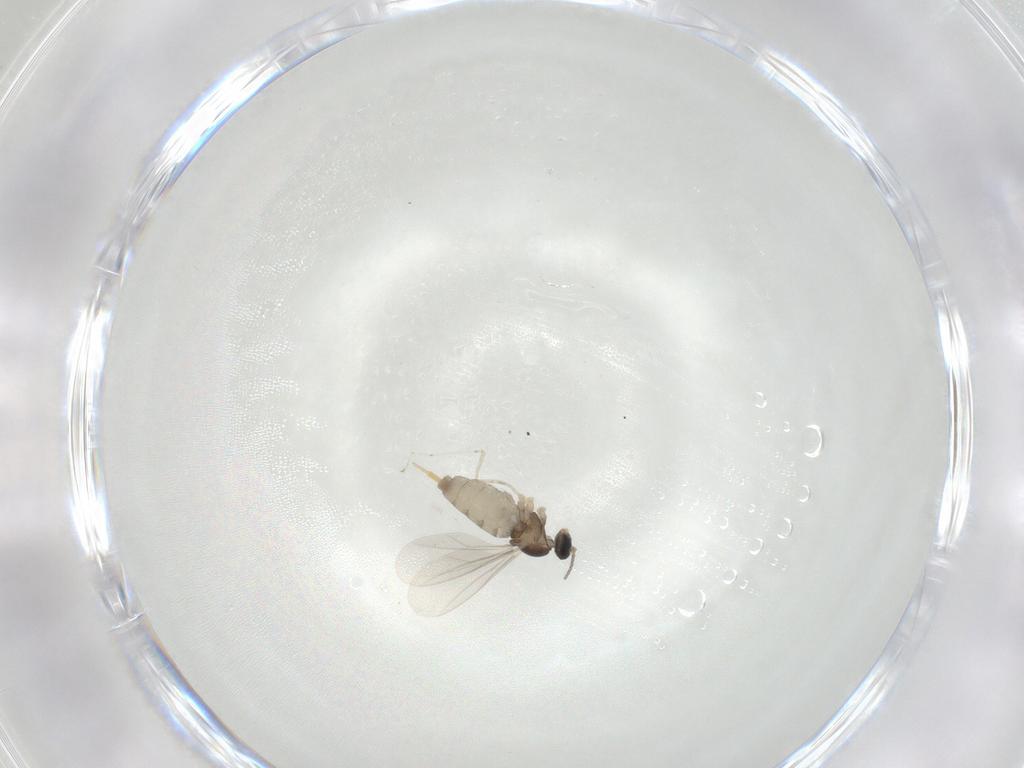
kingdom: Animalia
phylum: Arthropoda
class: Insecta
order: Diptera
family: Cecidomyiidae
